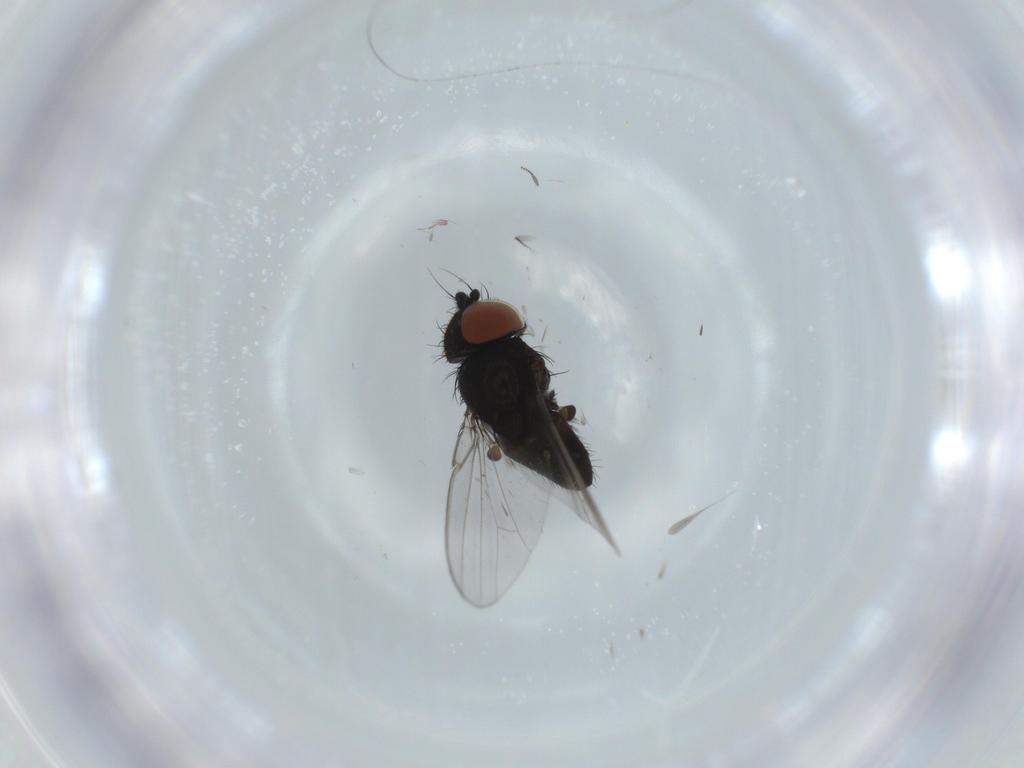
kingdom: Animalia
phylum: Arthropoda
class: Insecta
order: Diptera
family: Milichiidae
